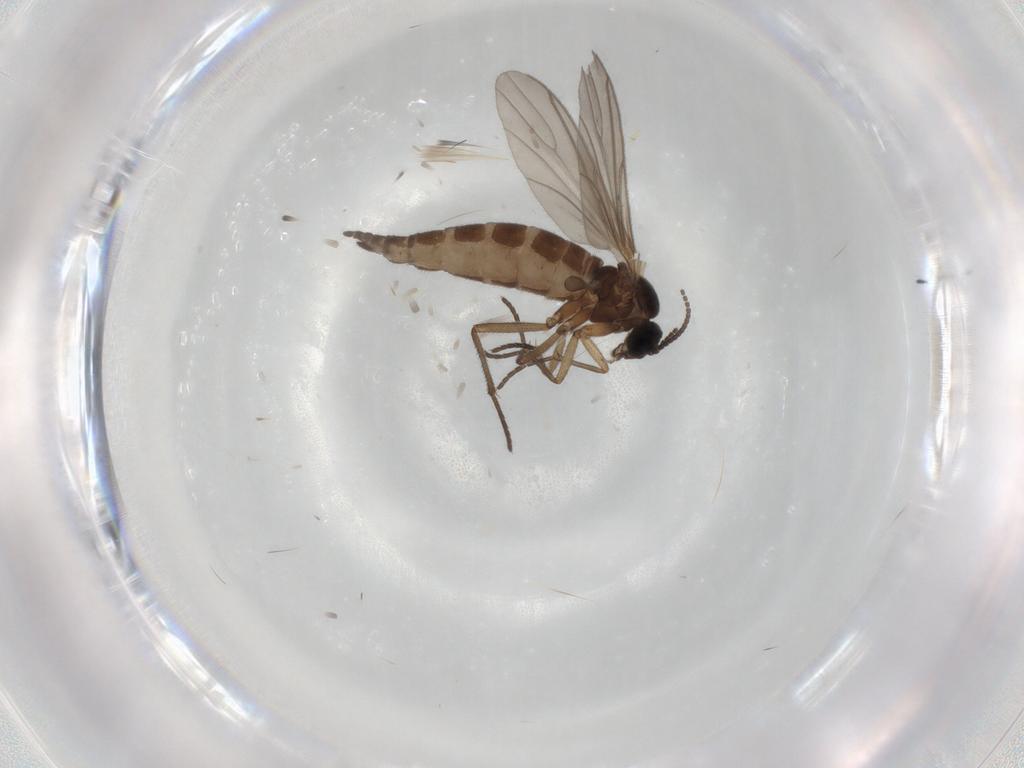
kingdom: Animalia
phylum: Arthropoda
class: Insecta
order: Diptera
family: Sciaridae
